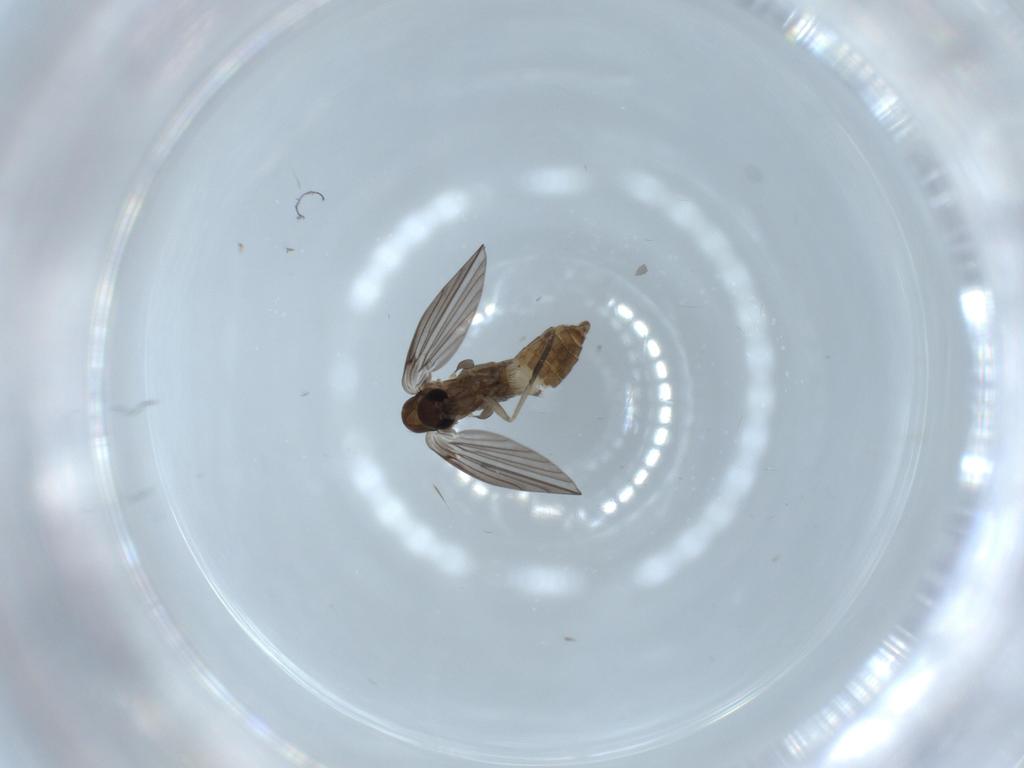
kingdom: Animalia
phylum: Arthropoda
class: Insecta
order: Diptera
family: Psychodidae
